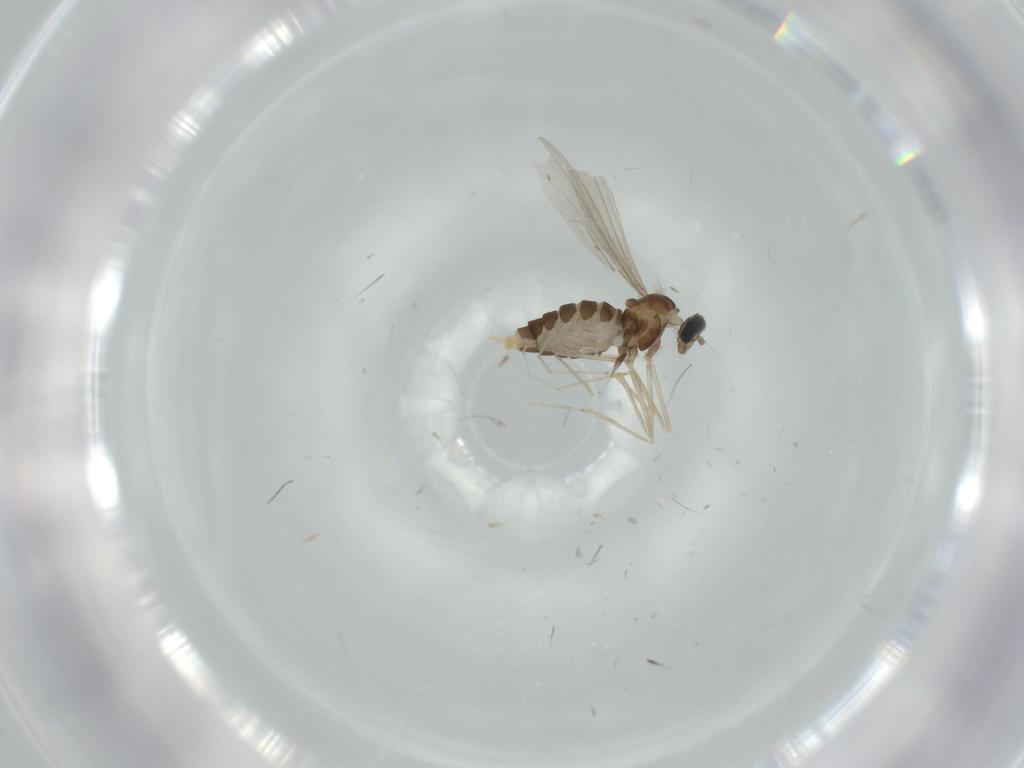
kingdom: Animalia
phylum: Arthropoda
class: Insecta
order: Diptera
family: Cecidomyiidae
